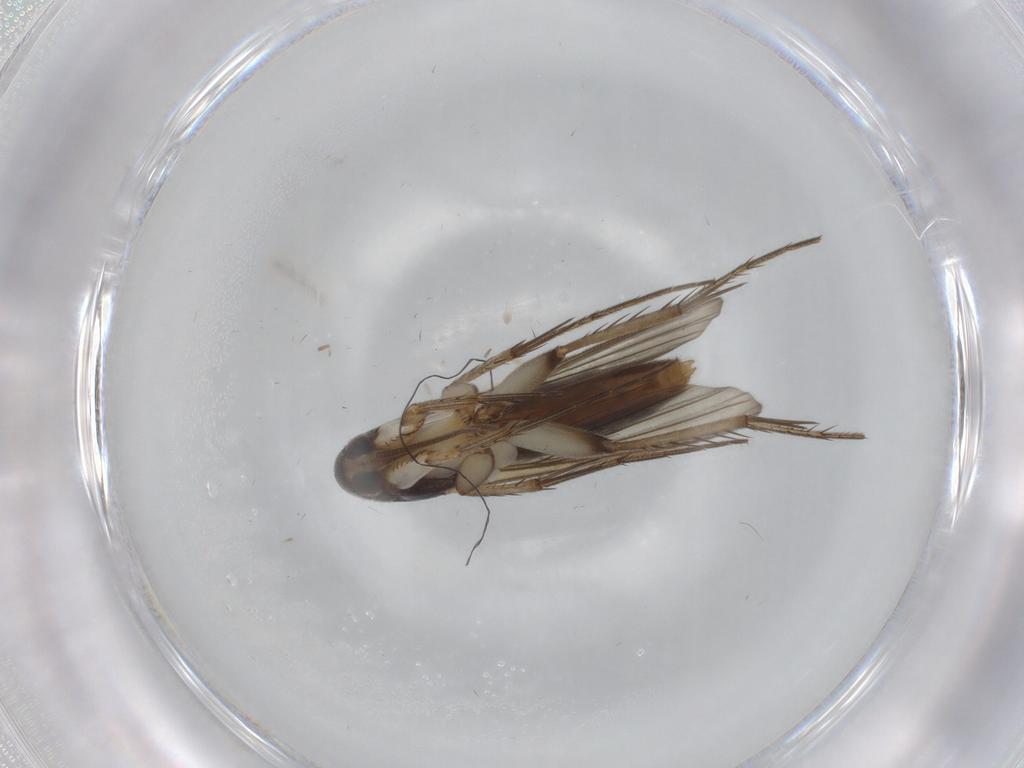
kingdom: Animalia
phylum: Arthropoda
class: Insecta
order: Diptera
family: Mycetophilidae
